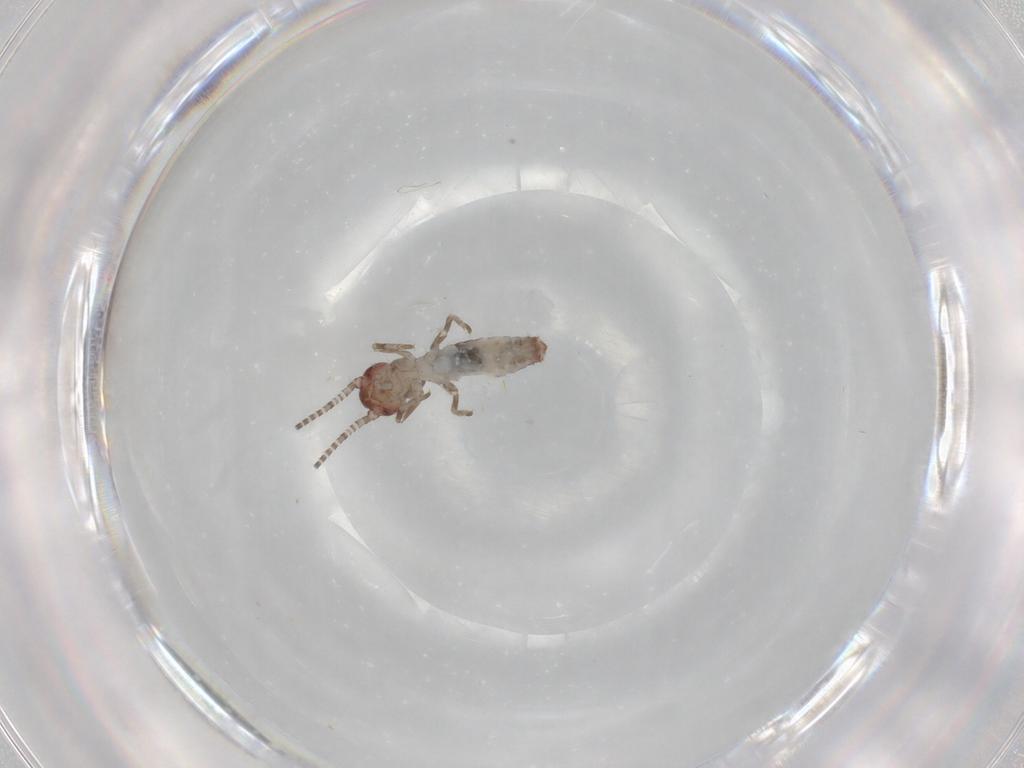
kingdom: Animalia
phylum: Arthropoda
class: Insecta
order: Orthoptera
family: Mogoplistidae
